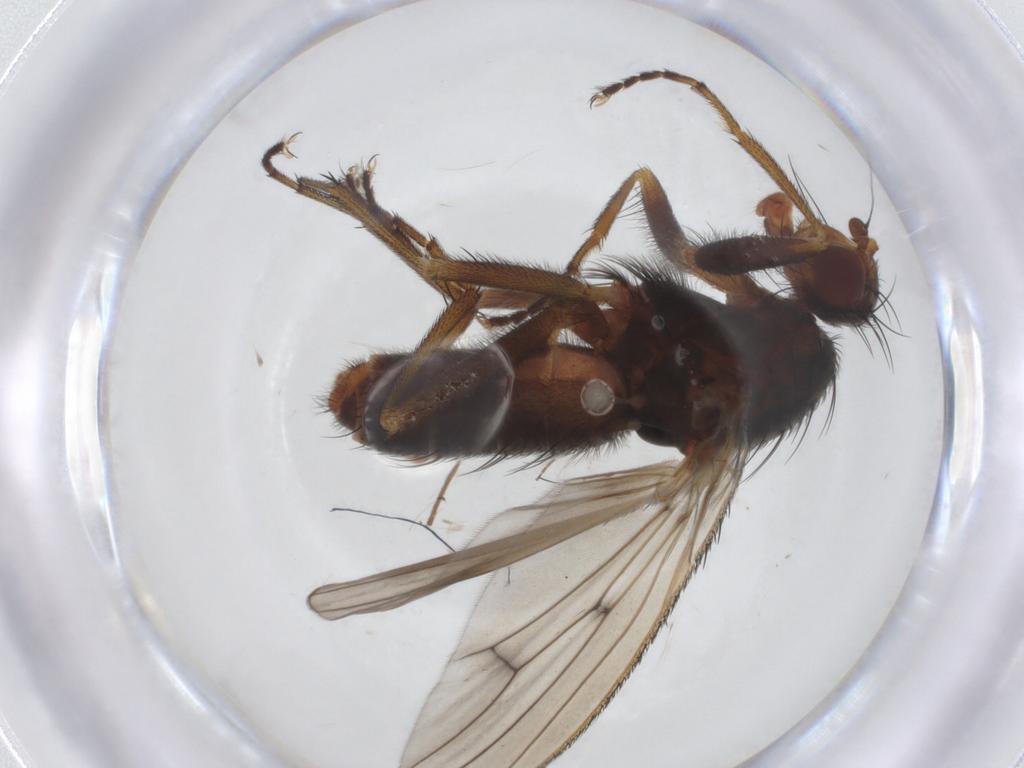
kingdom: Animalia
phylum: Arthropoda
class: Insecta
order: Diptera
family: Heleomyzidae
